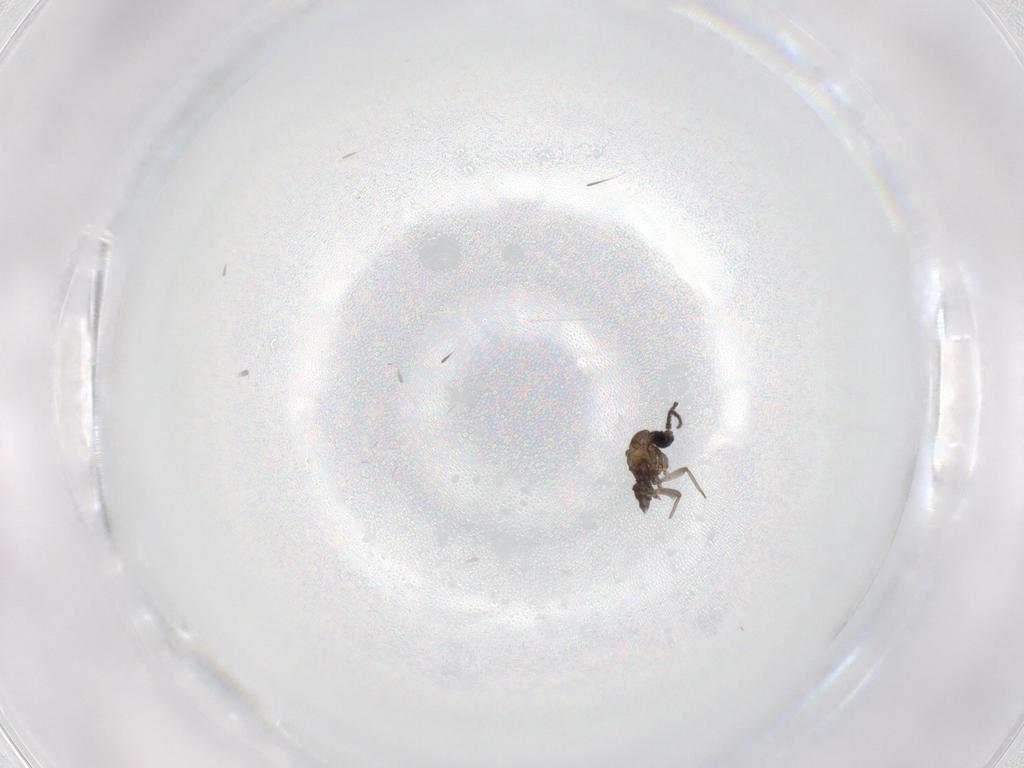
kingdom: Animalia
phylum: Arthropoda
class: Insecta
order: Diptera
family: Sciaridae
